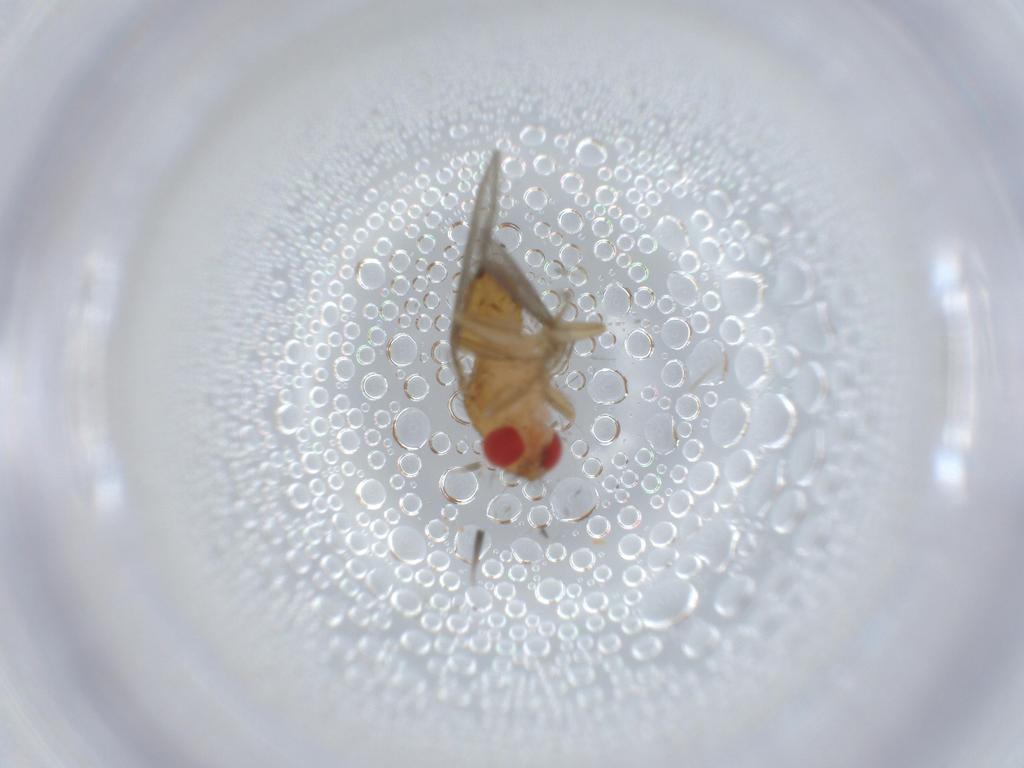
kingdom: Animalia
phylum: Arthropoda
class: Insecta
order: Diptera
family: Drosophilidae
